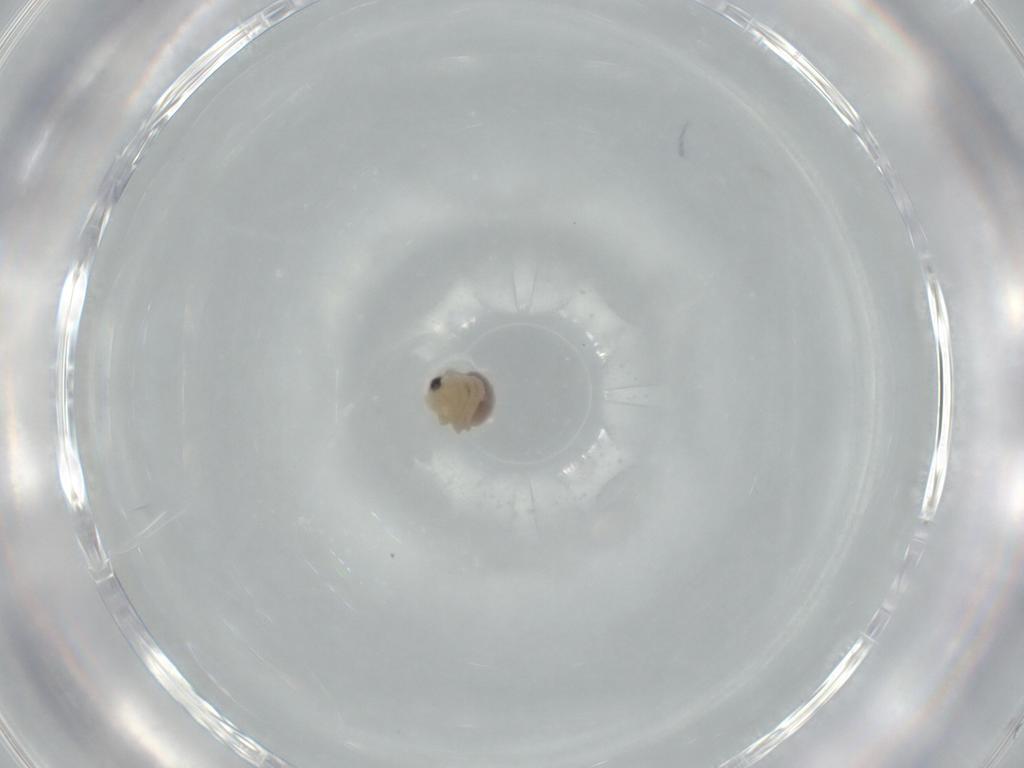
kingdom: Animalia
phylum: Arthropoda
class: Arachnida
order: Araneae
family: Pholcidae
